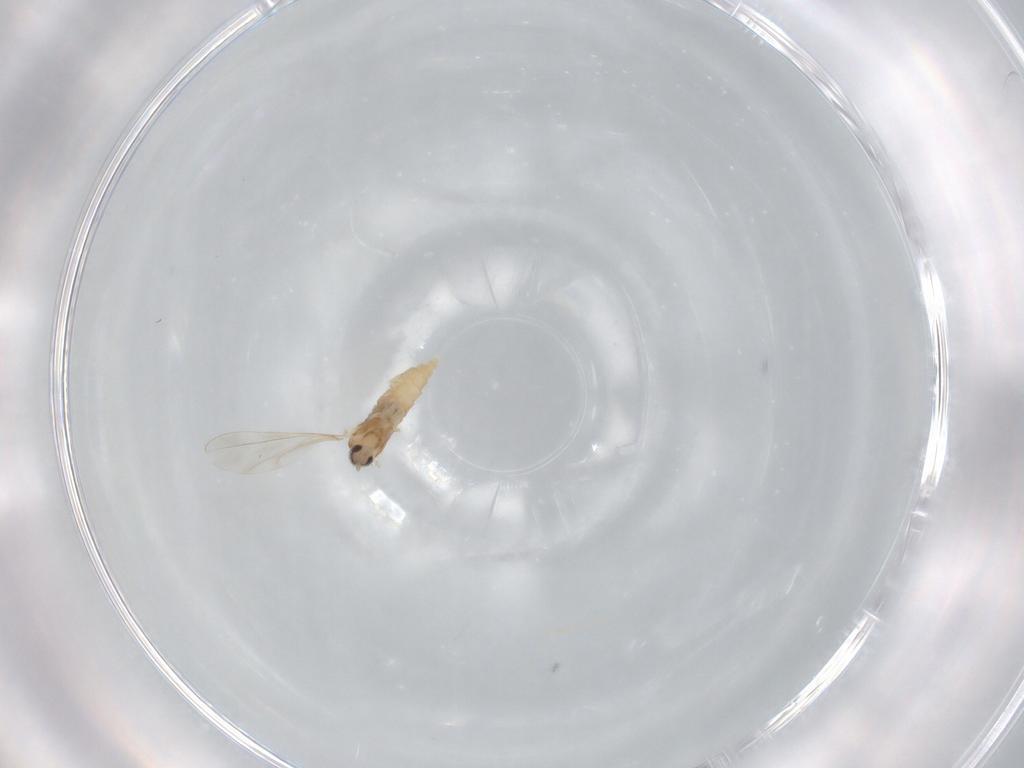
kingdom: Animalia
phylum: Arthropoda
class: Insecta
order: Diptera
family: Cecidomyiidae
